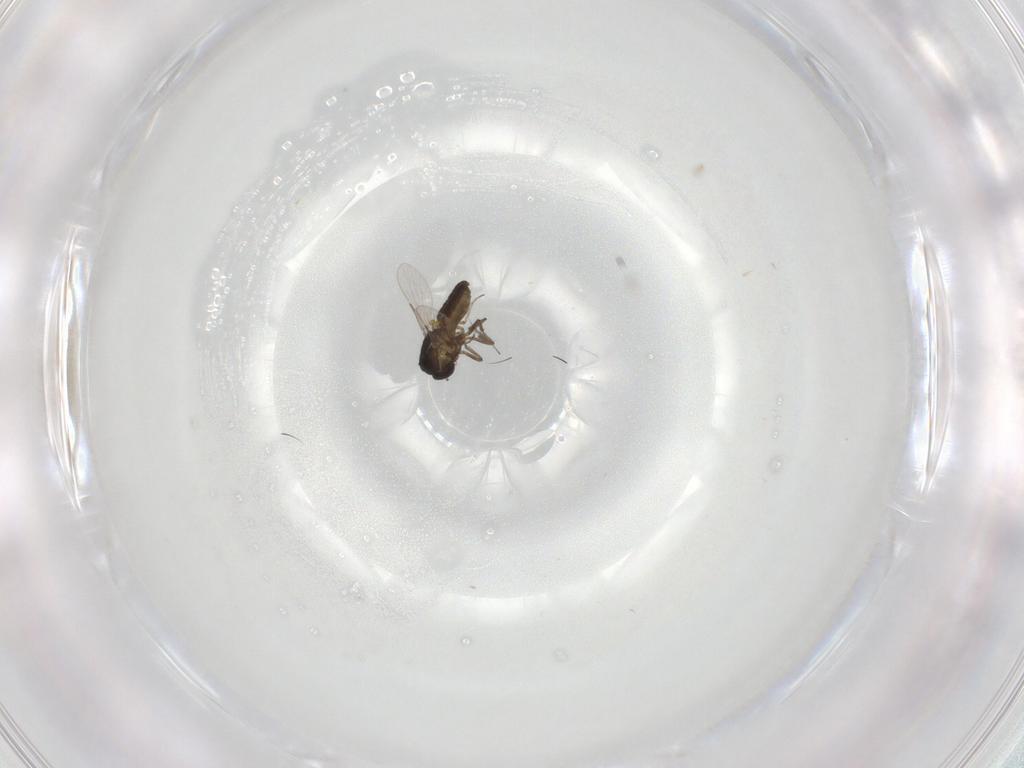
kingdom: Animalia
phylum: Arthropoda
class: Insecta
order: Diptera
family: Ceratopogonidae
